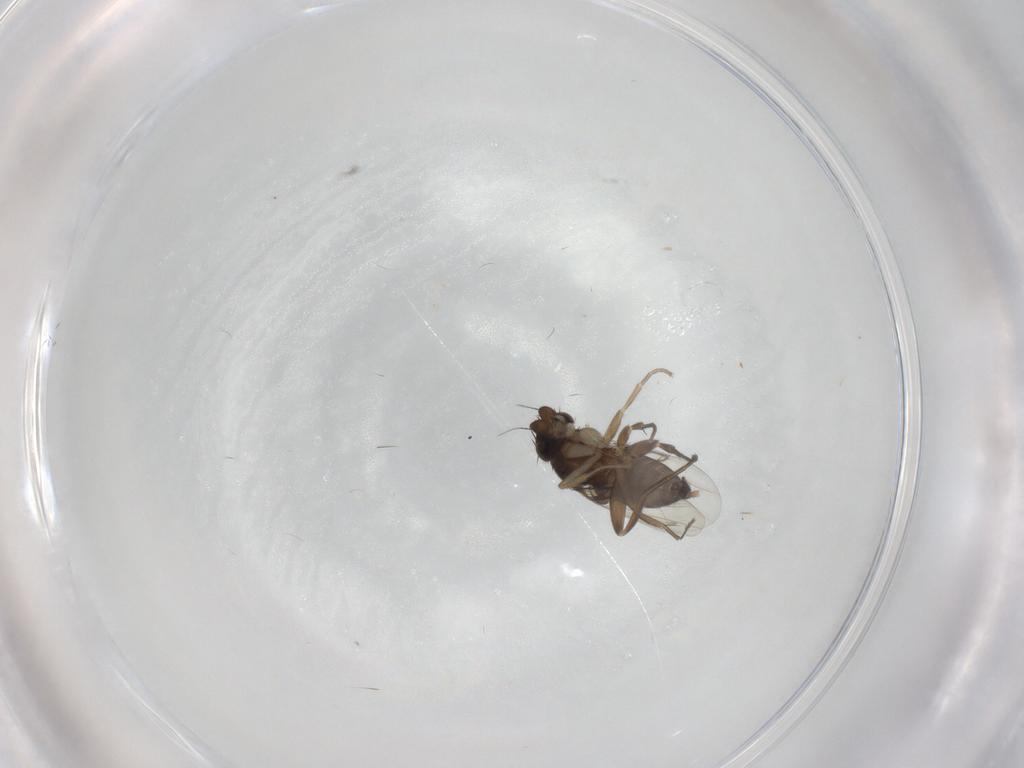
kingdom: Animalia
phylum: Arthropoda
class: Insecta
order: Diptera
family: Phoridae
